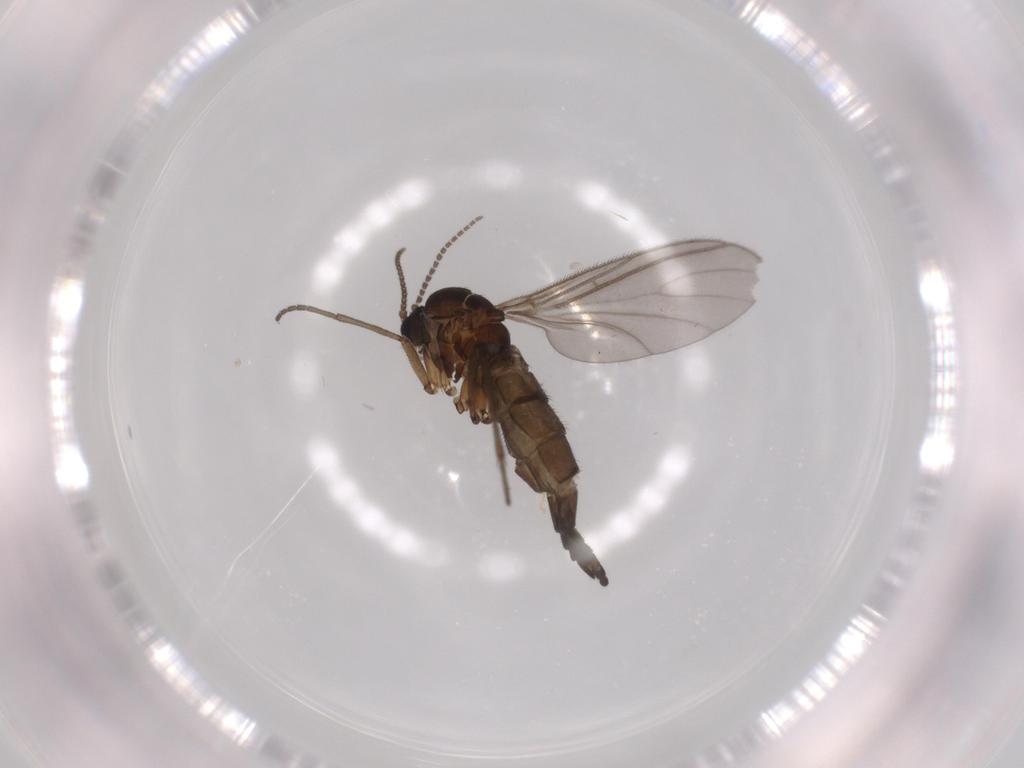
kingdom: Animalia
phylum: Arthropoda
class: Insecta
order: Diptera
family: Sciaridae
